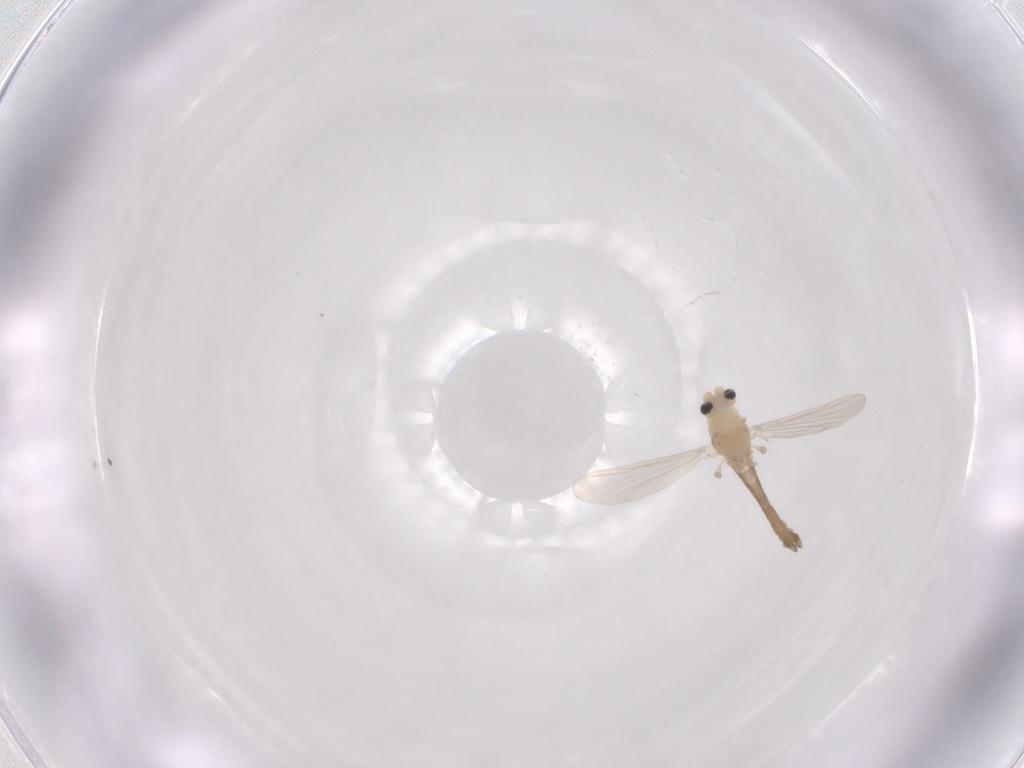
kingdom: Animalia
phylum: Arthropoda
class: Insecta
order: Diptera
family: Chironomidae
